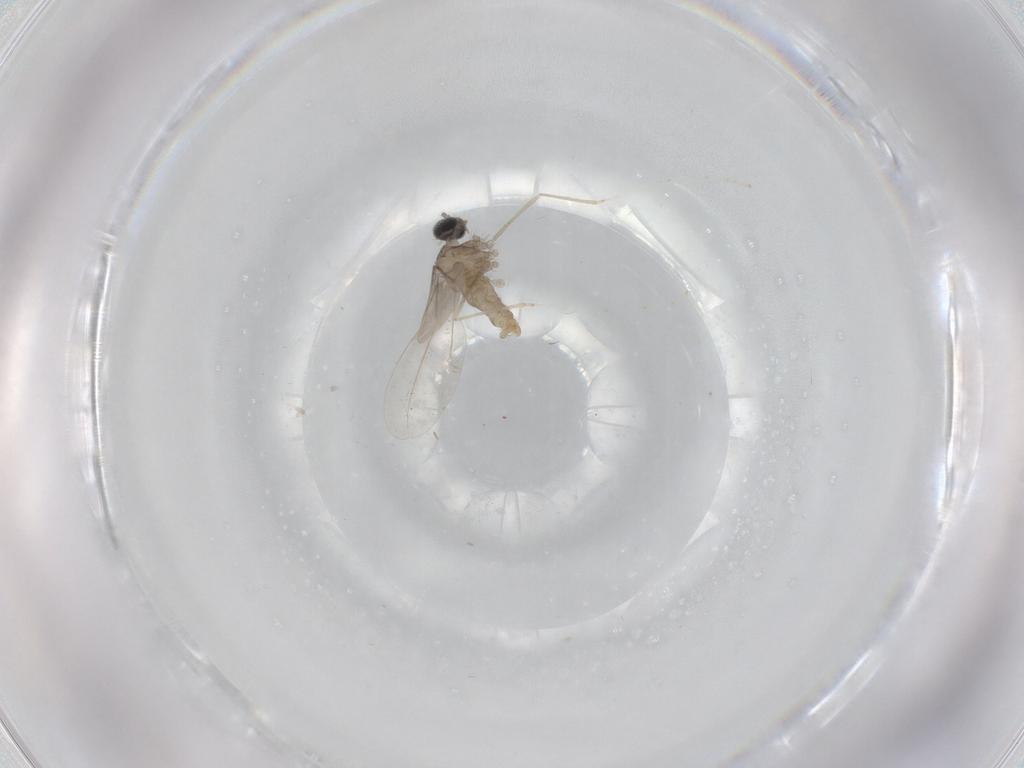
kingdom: Animalia
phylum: Arthropoda
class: Insecta
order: Diptera
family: Cecidomyiidae
